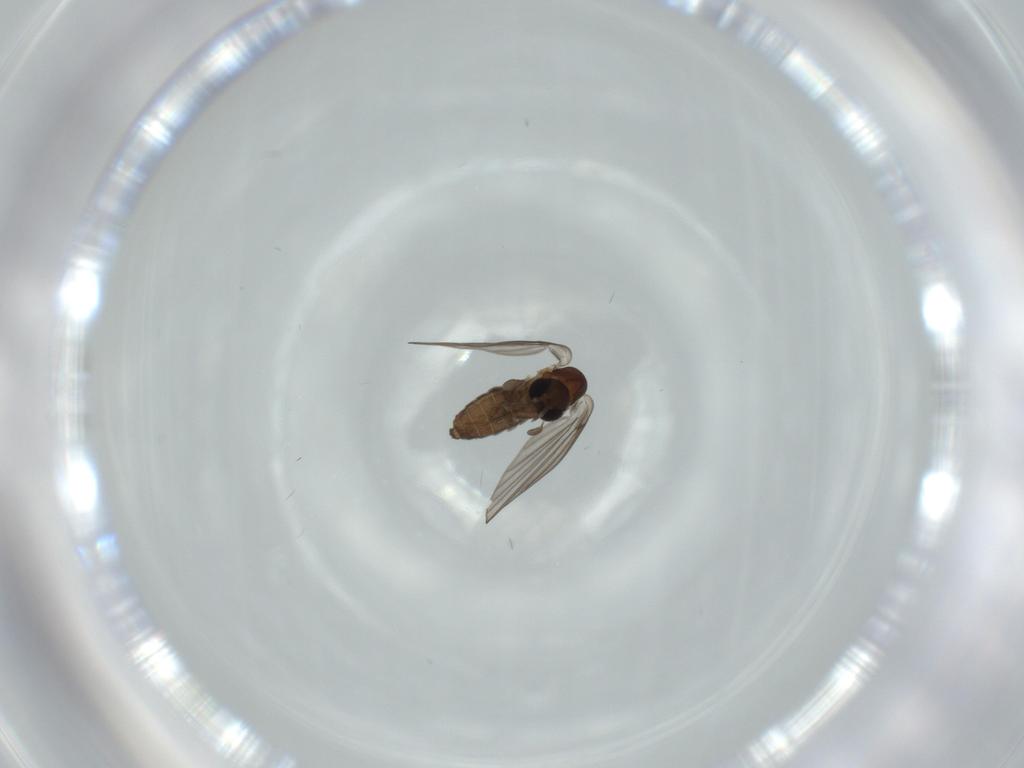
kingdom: Animalia
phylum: Arthropoda
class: Insecta
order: Diptera
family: Psychodidae
